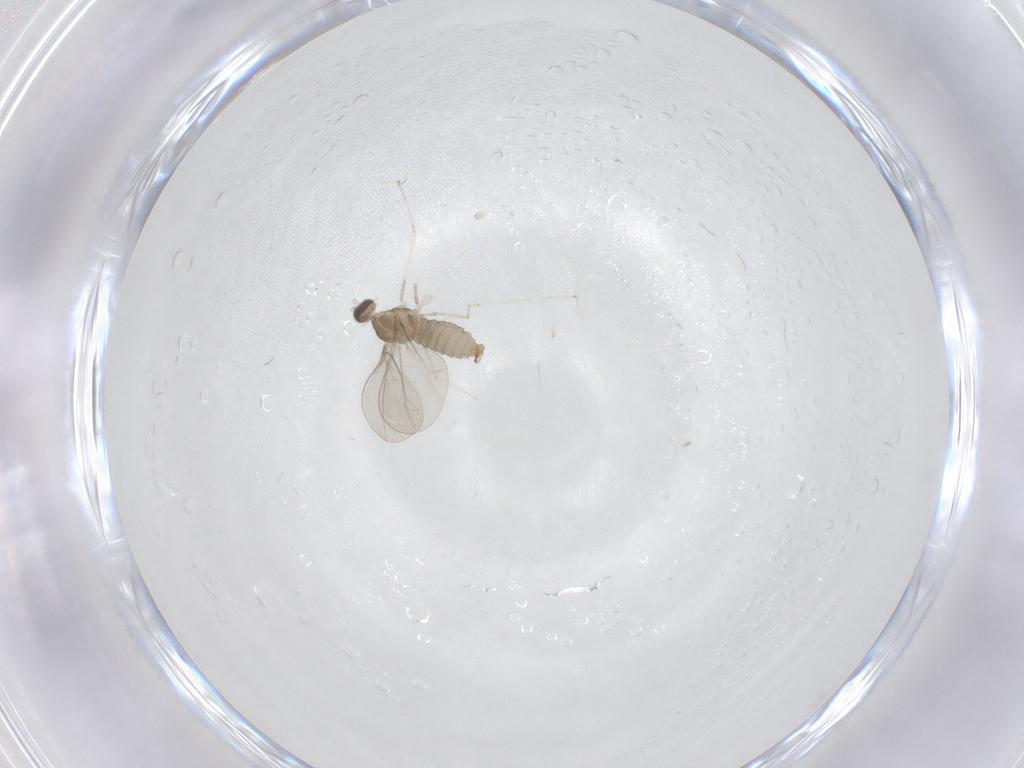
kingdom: Animalia
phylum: Arthropoda
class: Insecta
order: Diptera
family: Cecidomyiidae
